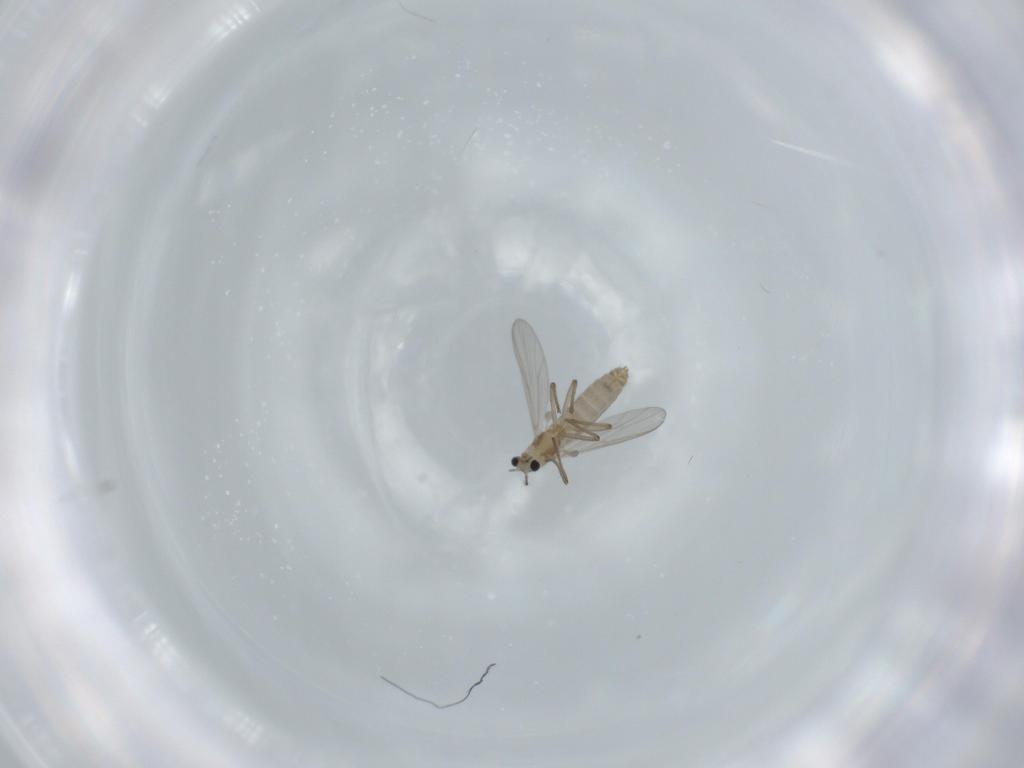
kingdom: Animalia
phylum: Arthropoda
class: Insecta
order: Diptera
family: Chironomidae
